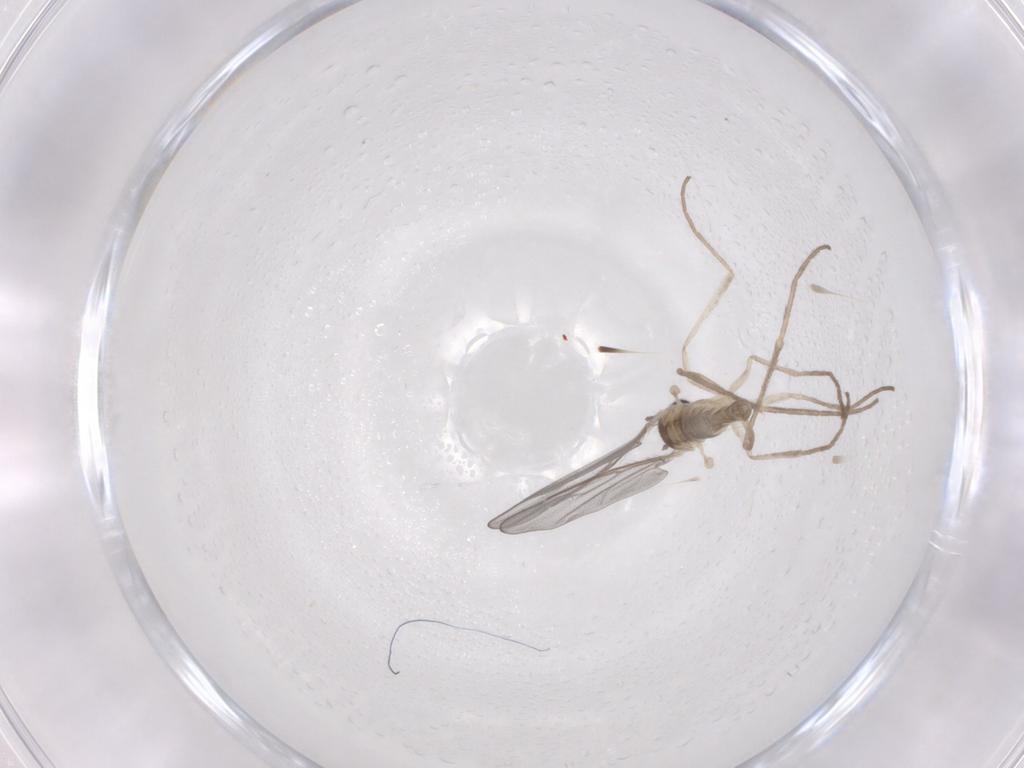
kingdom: Animalia
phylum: Arthropoda
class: Insecta
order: Diptera
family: Cecidomyiidae
